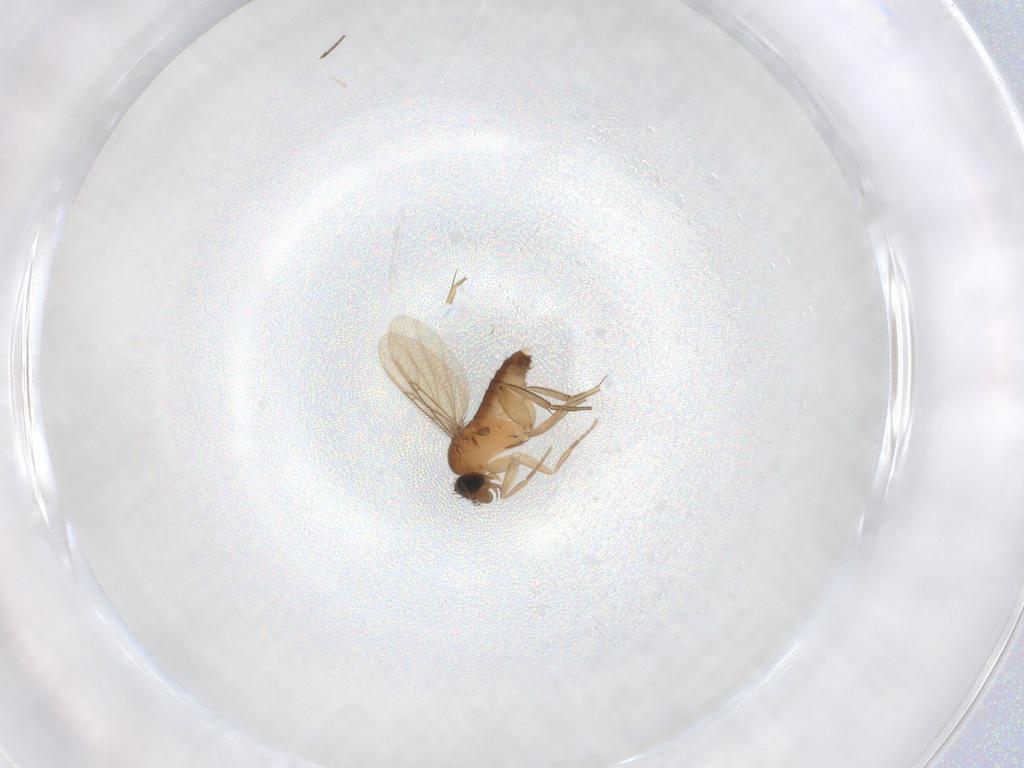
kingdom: Animalia
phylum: Arthropoda
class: Insecta
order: Diptera
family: Phoridae
